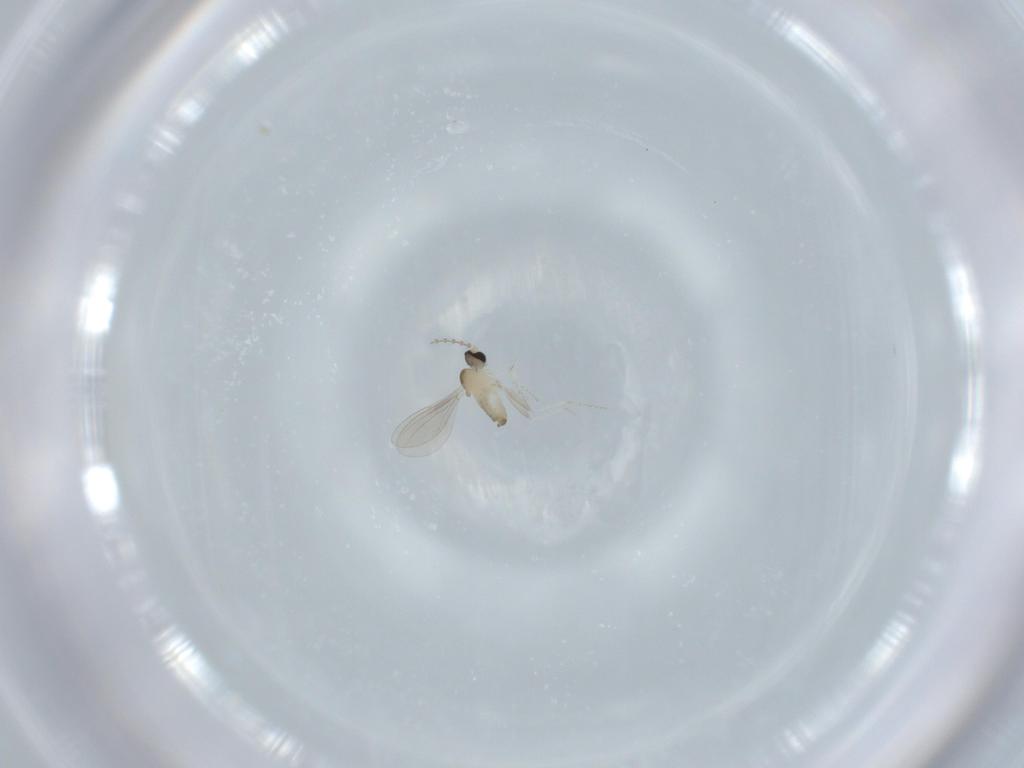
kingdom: Animalia
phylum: Arthropoda
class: Insecta
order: Diptera
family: Cecidomyiidae
